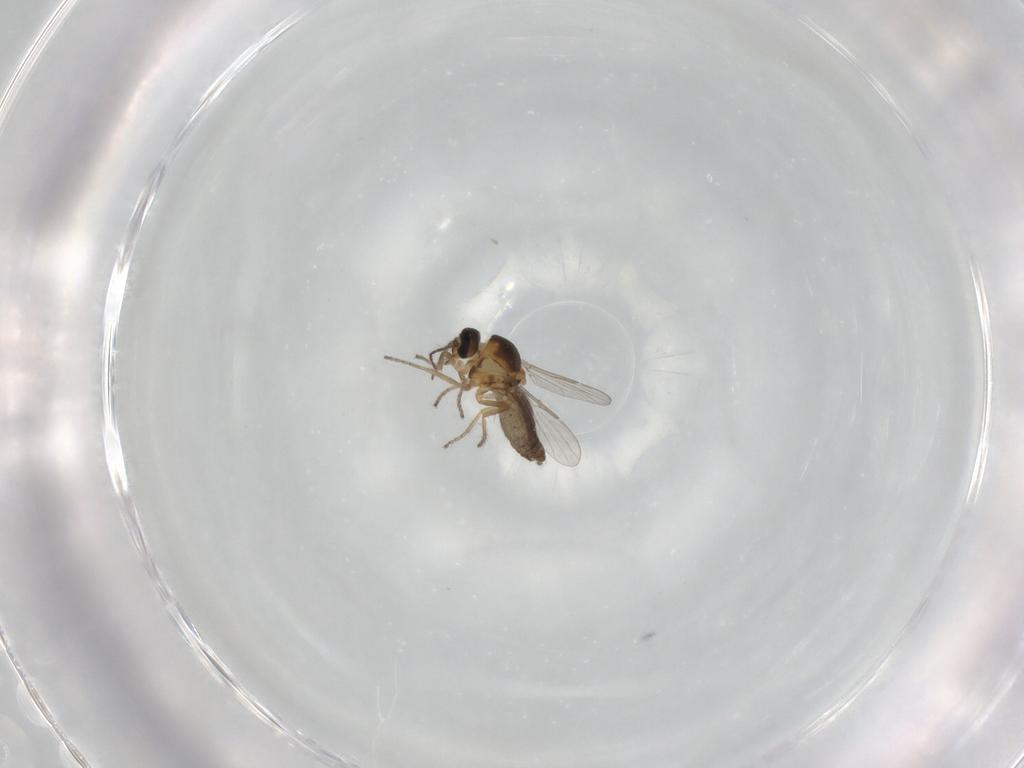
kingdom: Animalia
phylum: Arthropoda
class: Insecta
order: Diptera
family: Ceratopogonidae
